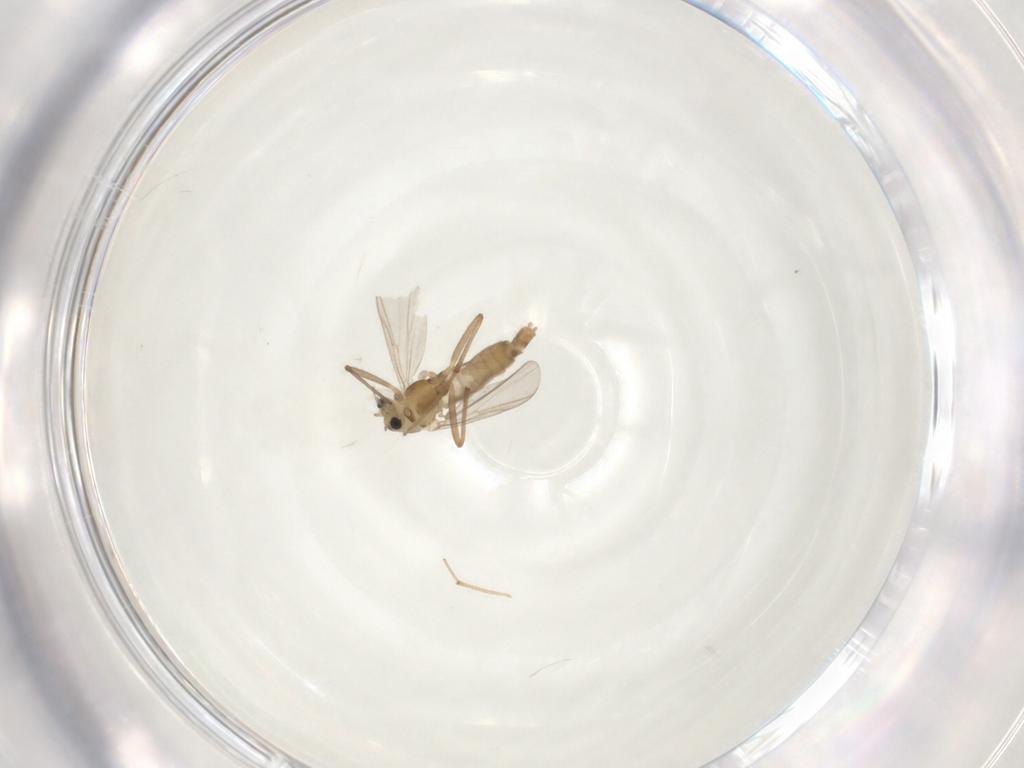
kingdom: Animalia
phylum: Arthropoda
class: Insecta
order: Diptera
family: Chironomidae
